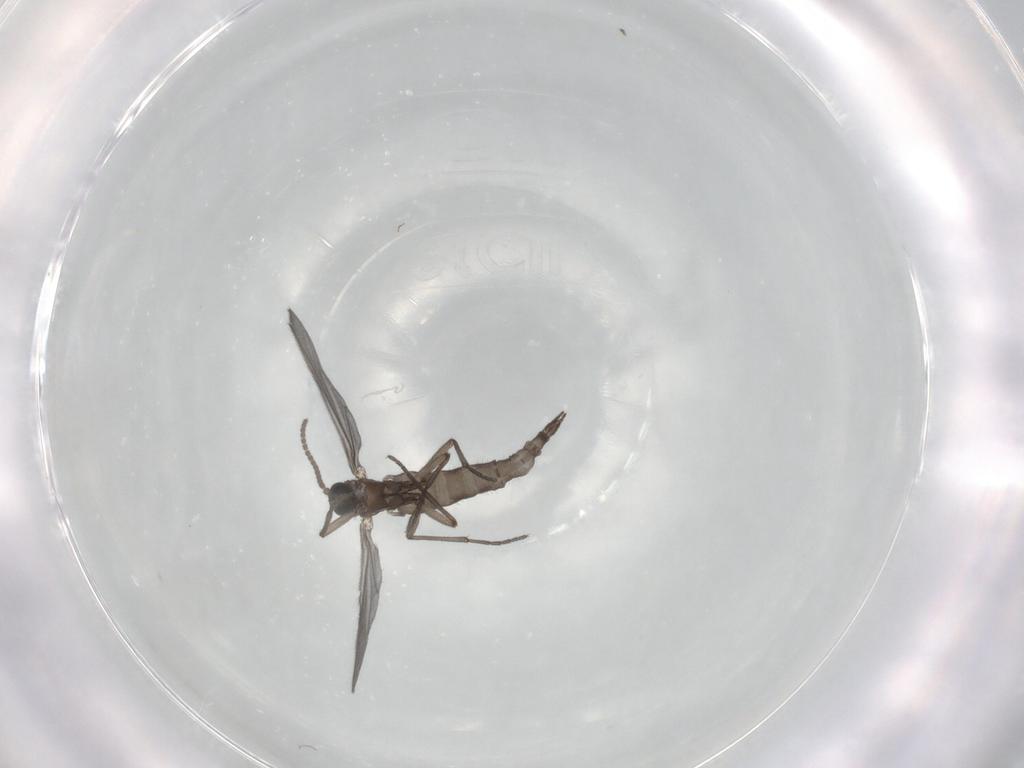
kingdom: Animalia
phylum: Arthropoda
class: Insecta
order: Diptera
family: Sciaridae
